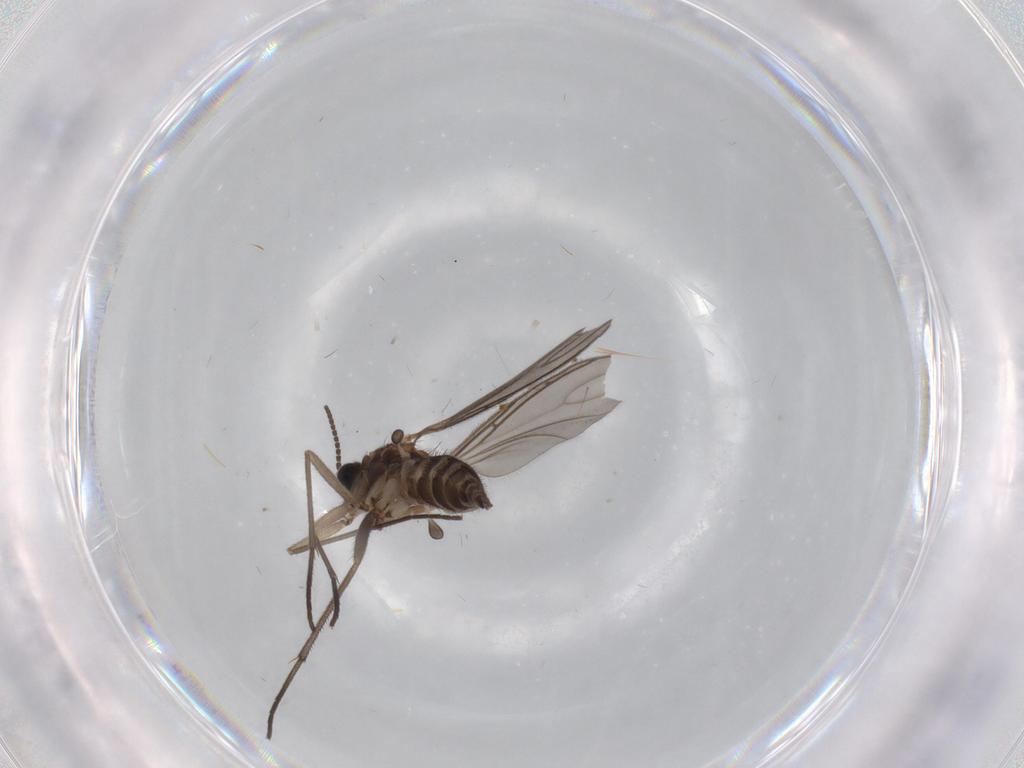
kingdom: Animalia
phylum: Arthropoda
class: Insecta
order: Diptera
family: Sciaridae
